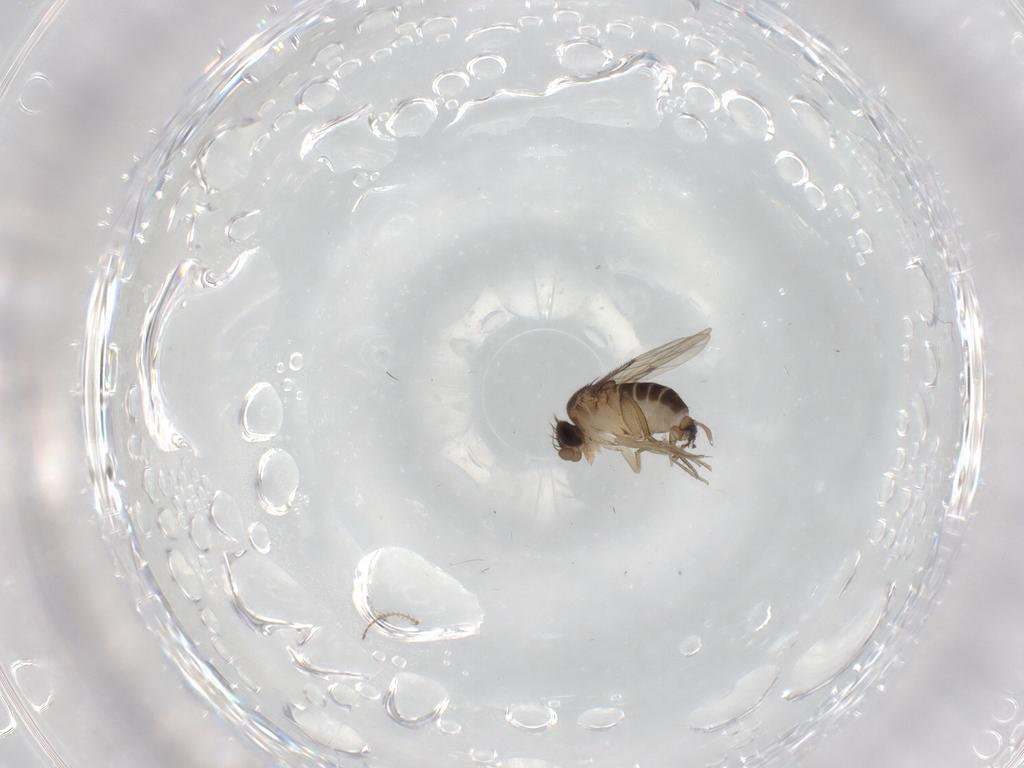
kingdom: Animalia
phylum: Arthropoda
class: Insecta
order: Diptera
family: Ceratopogonidae
